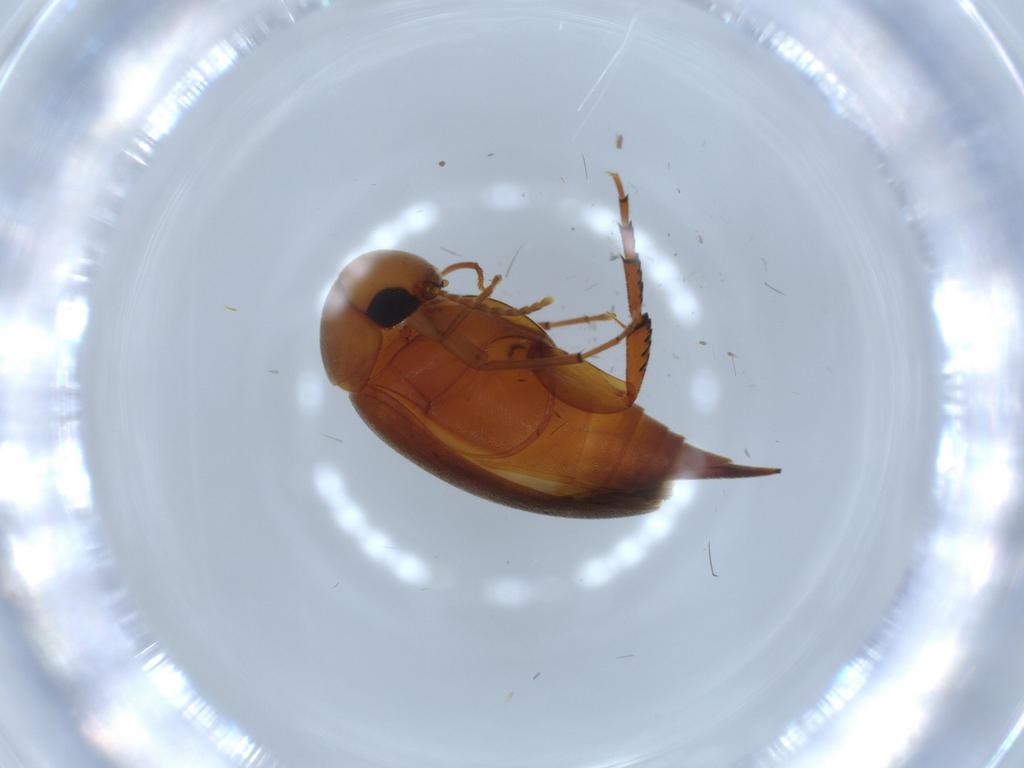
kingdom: Animalia
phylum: Arthropoda
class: Insecta
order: Coleoptera
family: Mordellidae
